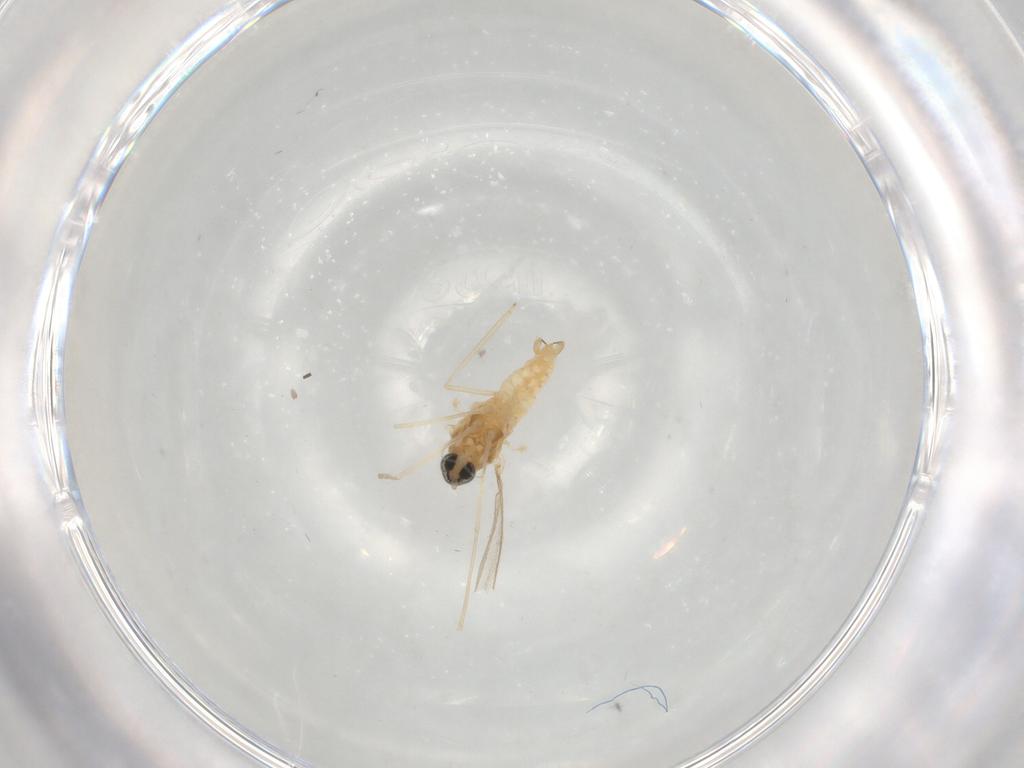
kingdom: Animalia
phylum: Arthropoda
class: Insecta
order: Diptera
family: Cecidomyiidae
